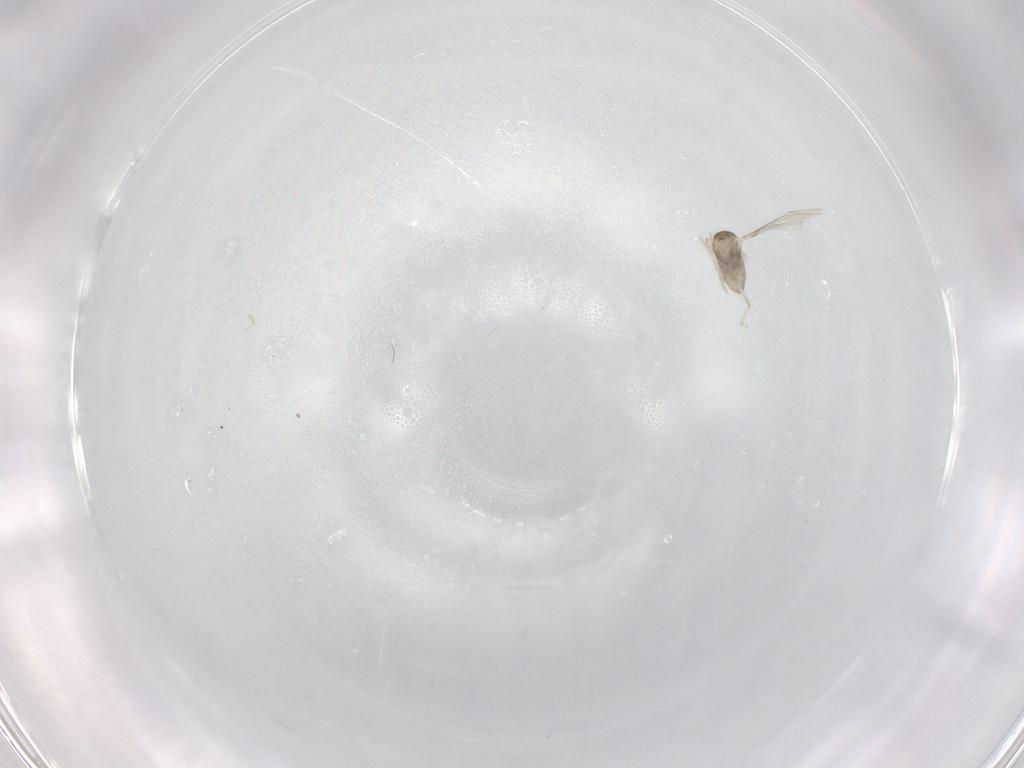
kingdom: Animalia
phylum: Arthropoda
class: Insecta
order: Diptera
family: Cecidomyiidae
